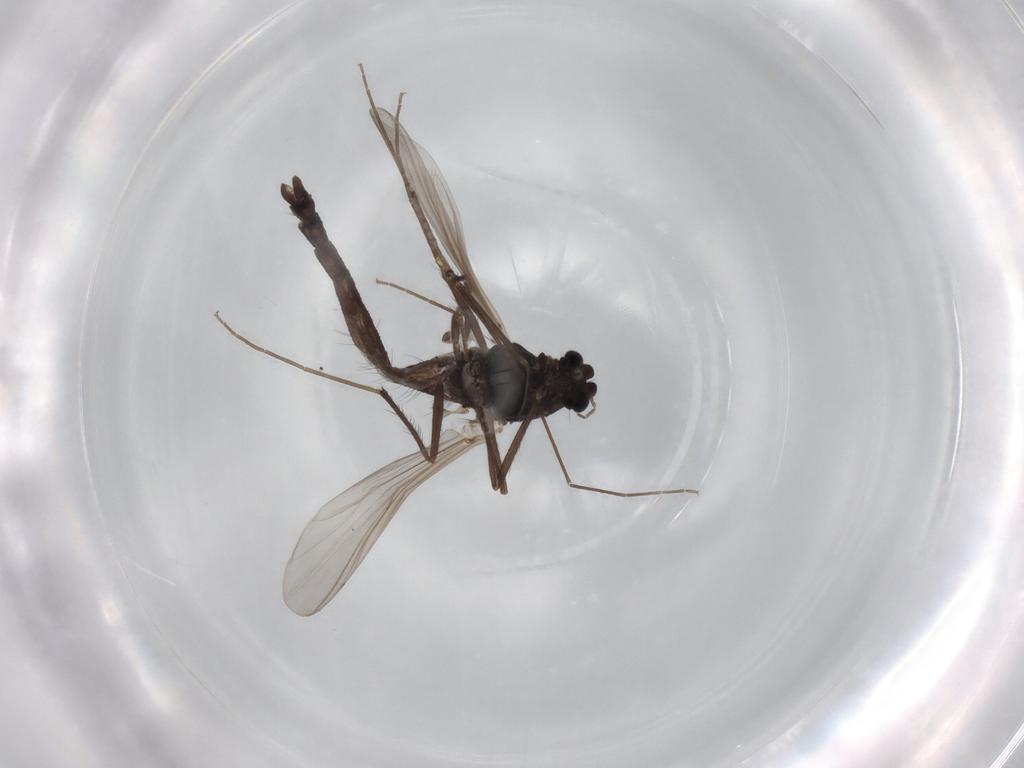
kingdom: Animalia
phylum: Arthropoda
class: Insecta
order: Diptera
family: Chironomidae
